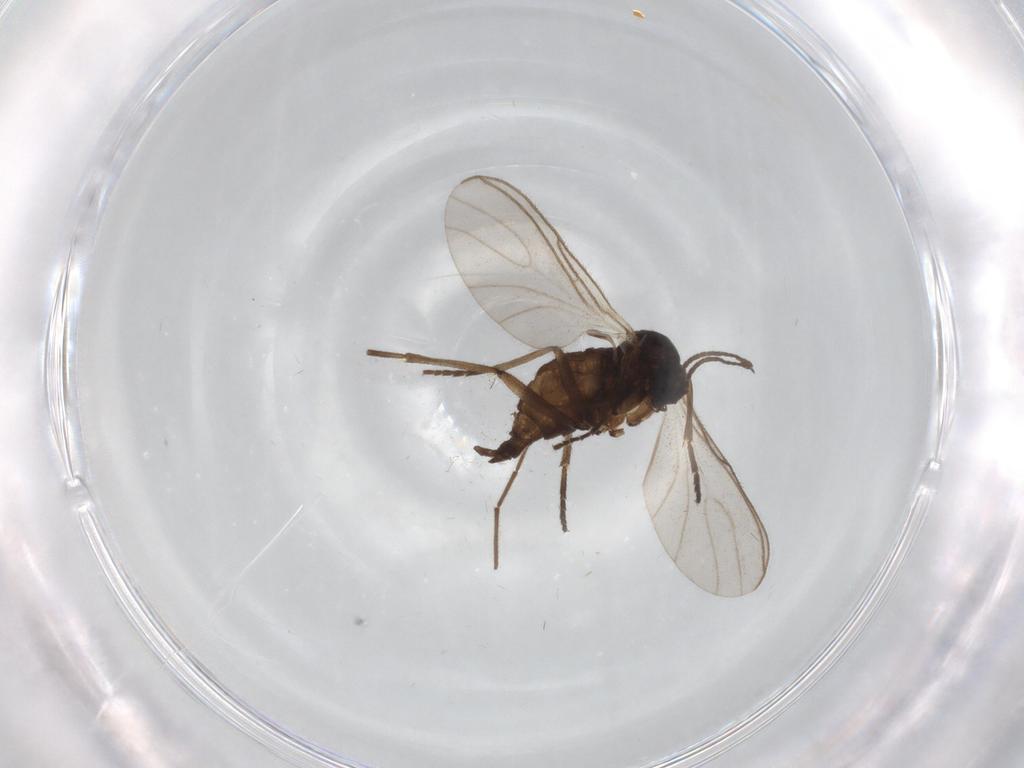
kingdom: Animalia
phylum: Arthropoda
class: Insecta
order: Diptera
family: Sciaridae
